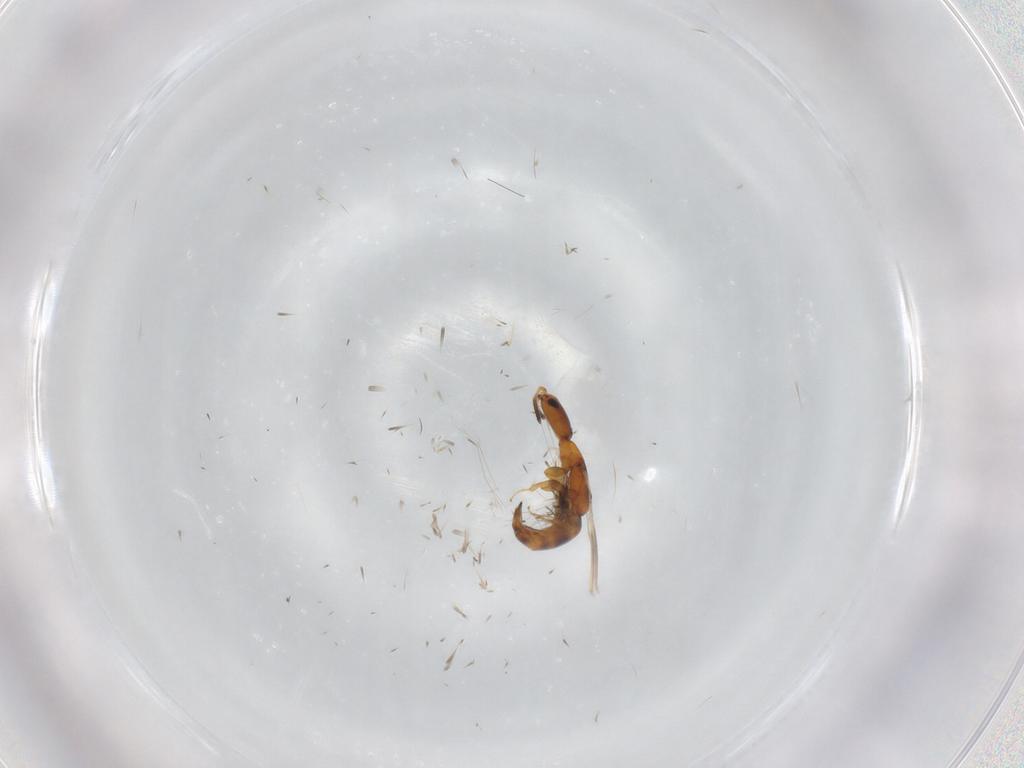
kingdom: Animalia
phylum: Arthropoda
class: Insecta
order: Hymenoptera
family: Bethylidae
